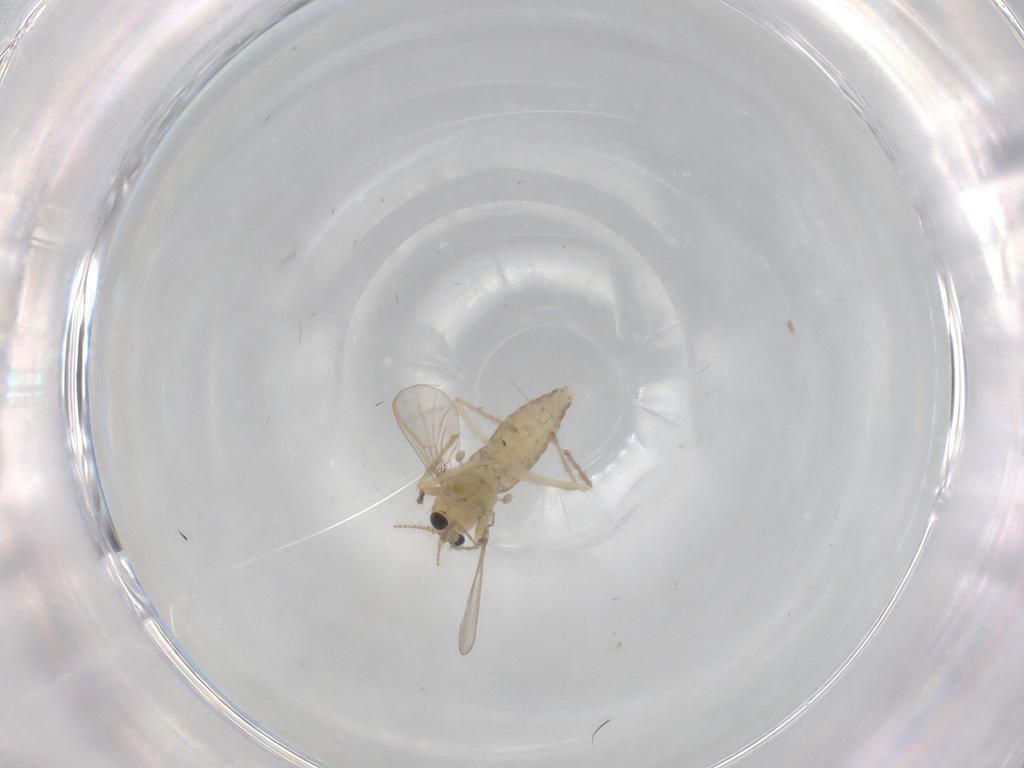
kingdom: Animalia
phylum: Arthropoda
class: Insecta
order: Diptera
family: Chironomidae
